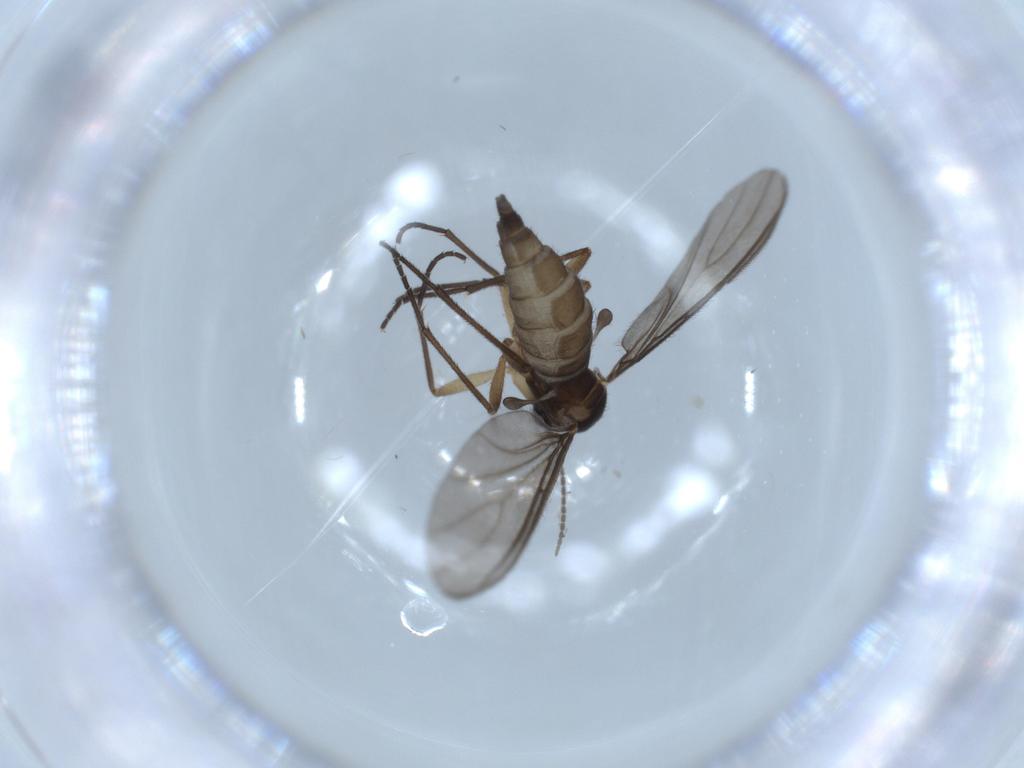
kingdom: Animalia
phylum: Arthropoda
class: Insecta
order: Diptera
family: Sciaridae
